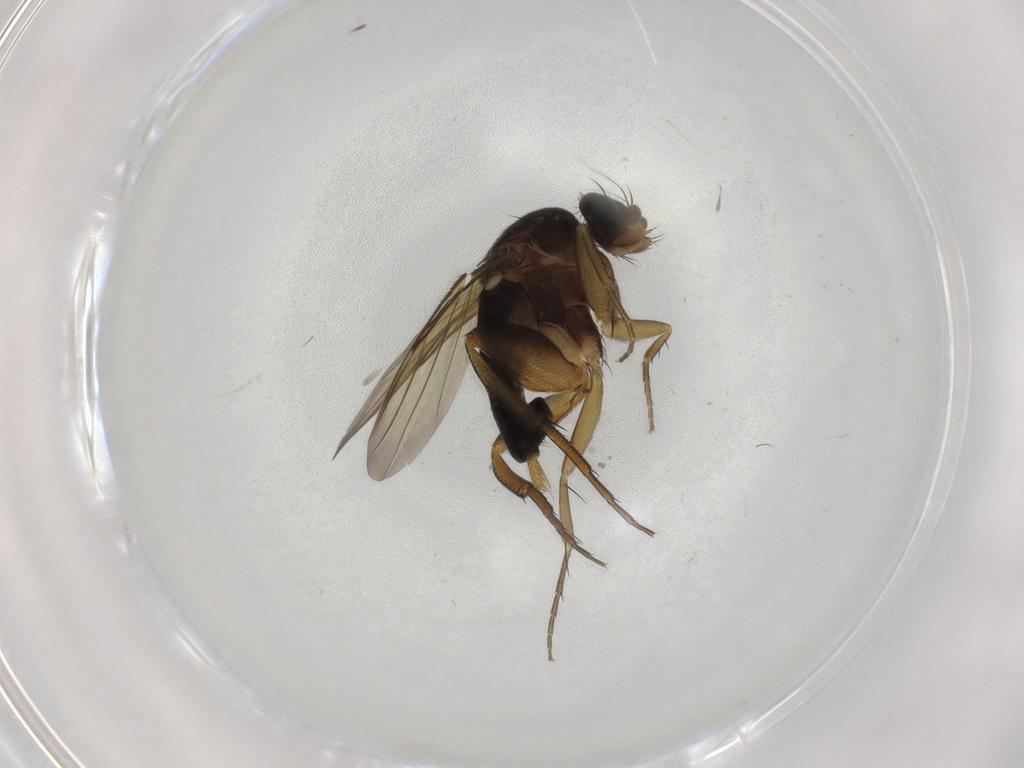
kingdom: Animalia
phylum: Arthropoda
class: Insecta
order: Diptera
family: Phoridae
